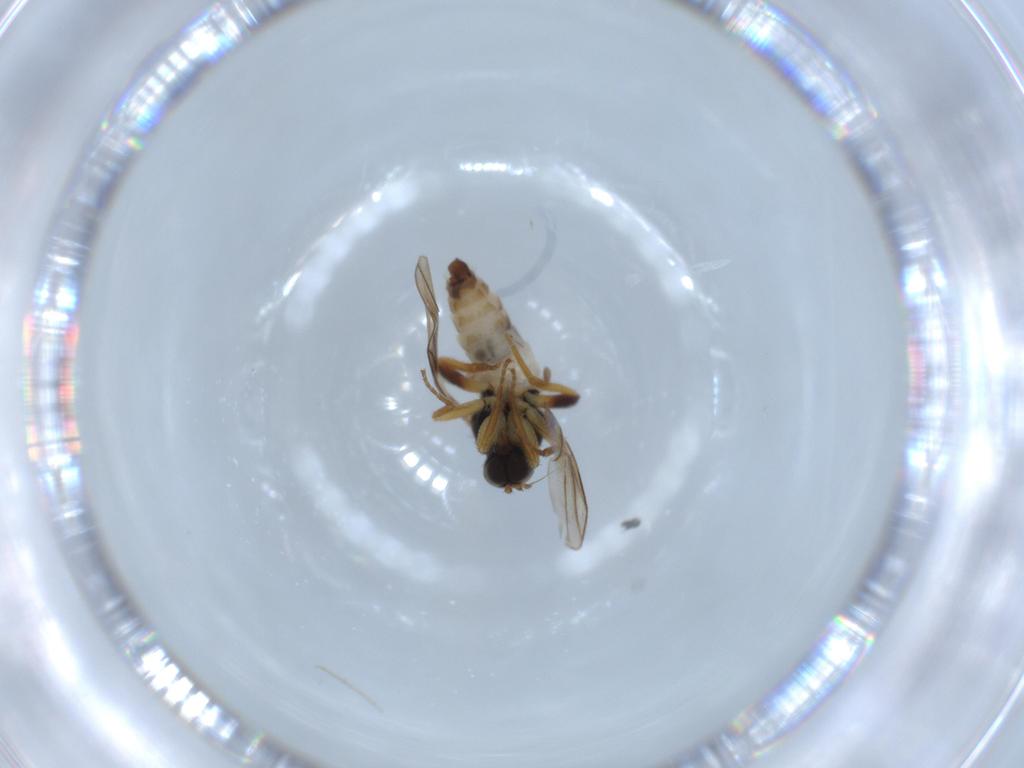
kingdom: Animalia
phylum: Arthropoda
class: Insecta
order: Diptera
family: Hybotidae
